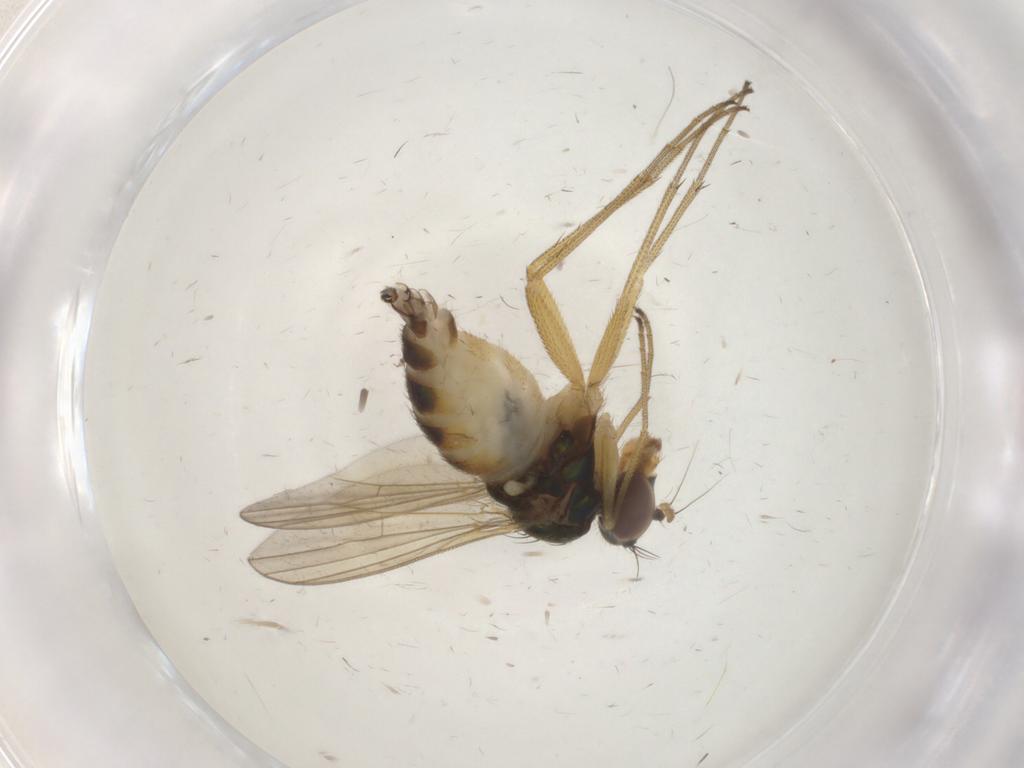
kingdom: Animalia
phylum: Arthropoda
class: Insecta
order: Diptera
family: Dolichopodidae
